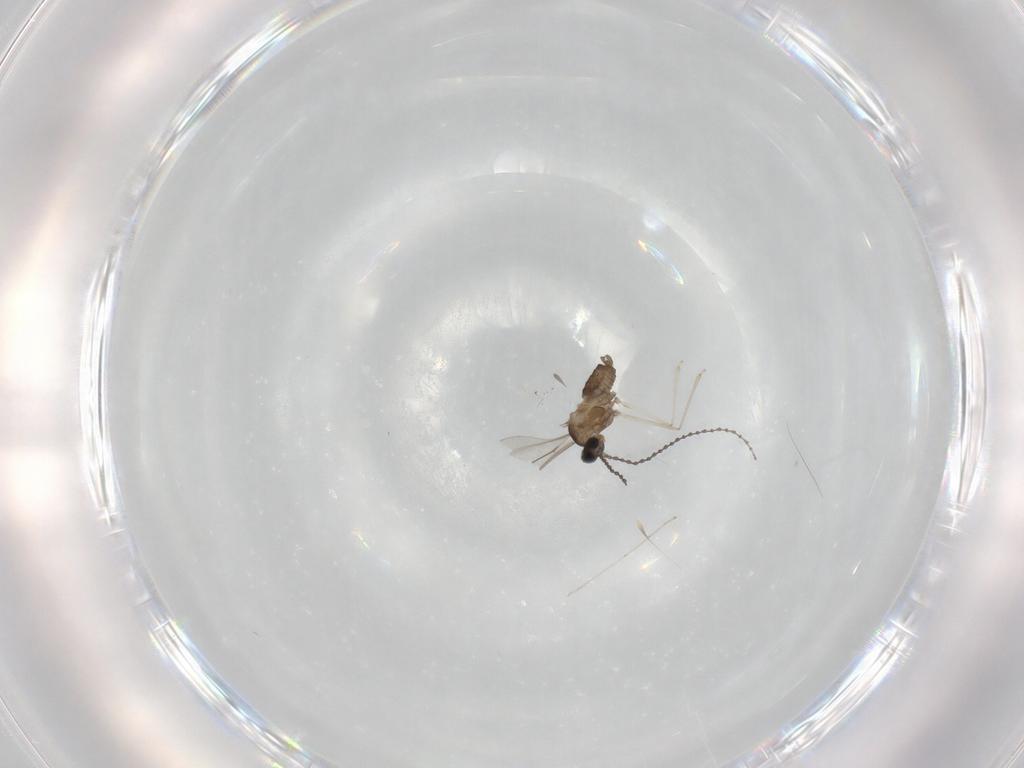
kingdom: Animalia
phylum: Arthropoda
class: Insecta
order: Diptera
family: Cecidomyiidae
